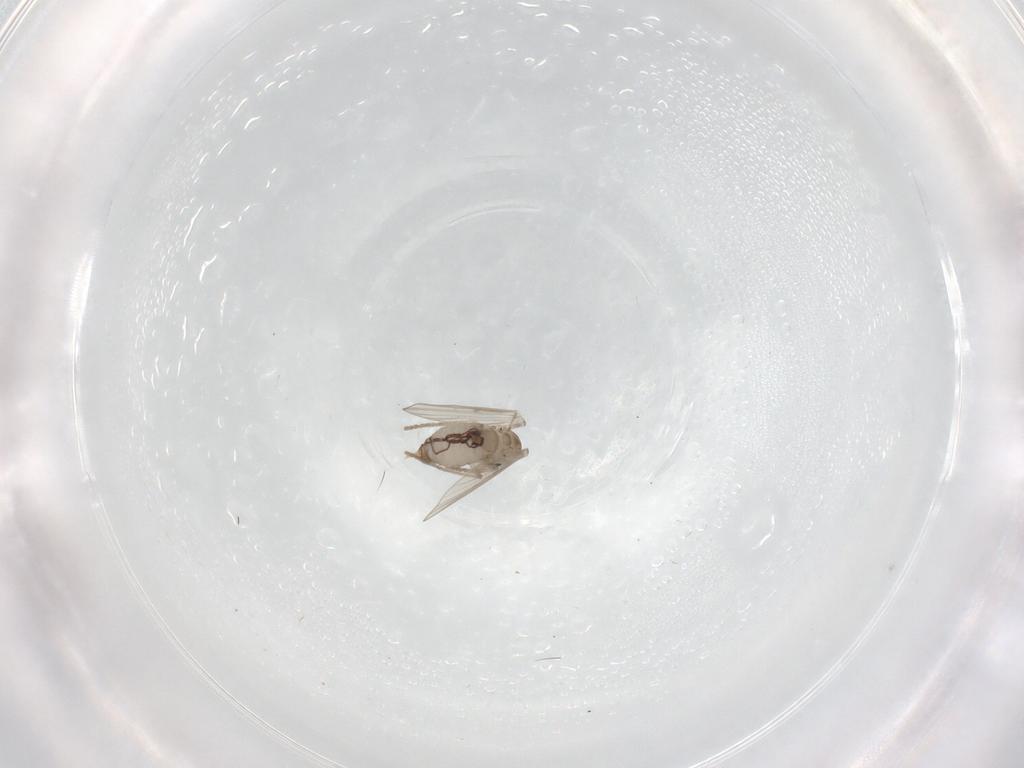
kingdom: Animalia
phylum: Arthropoda
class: Insecta
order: Diptera
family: Psychodidae
